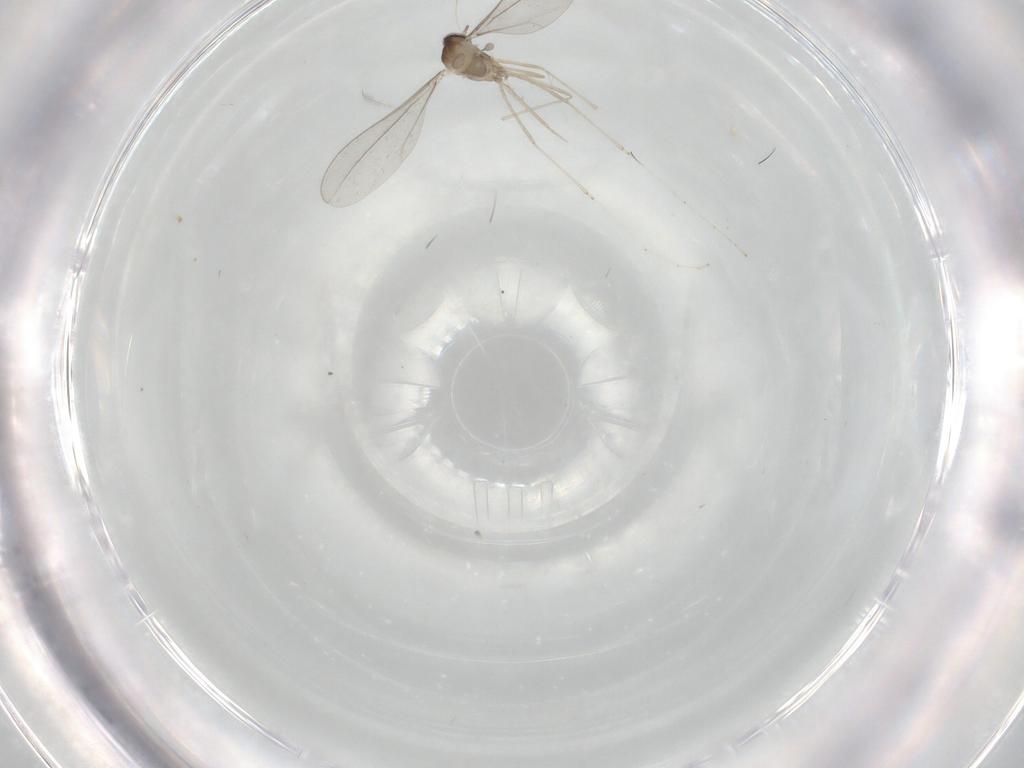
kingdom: Animalia
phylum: Arthropoda
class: Insecta
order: Diptera
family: Cecidomyiidae
